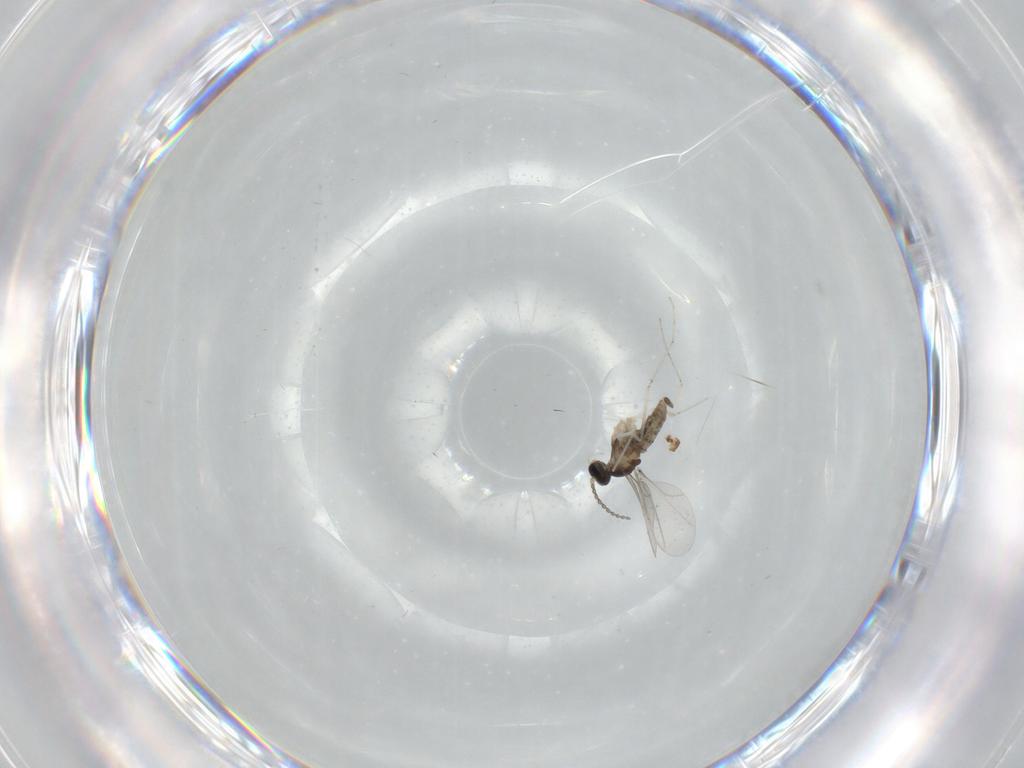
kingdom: Animalia
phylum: Arthropoda
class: Insecta
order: Diptera
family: Cecidomyiidae
